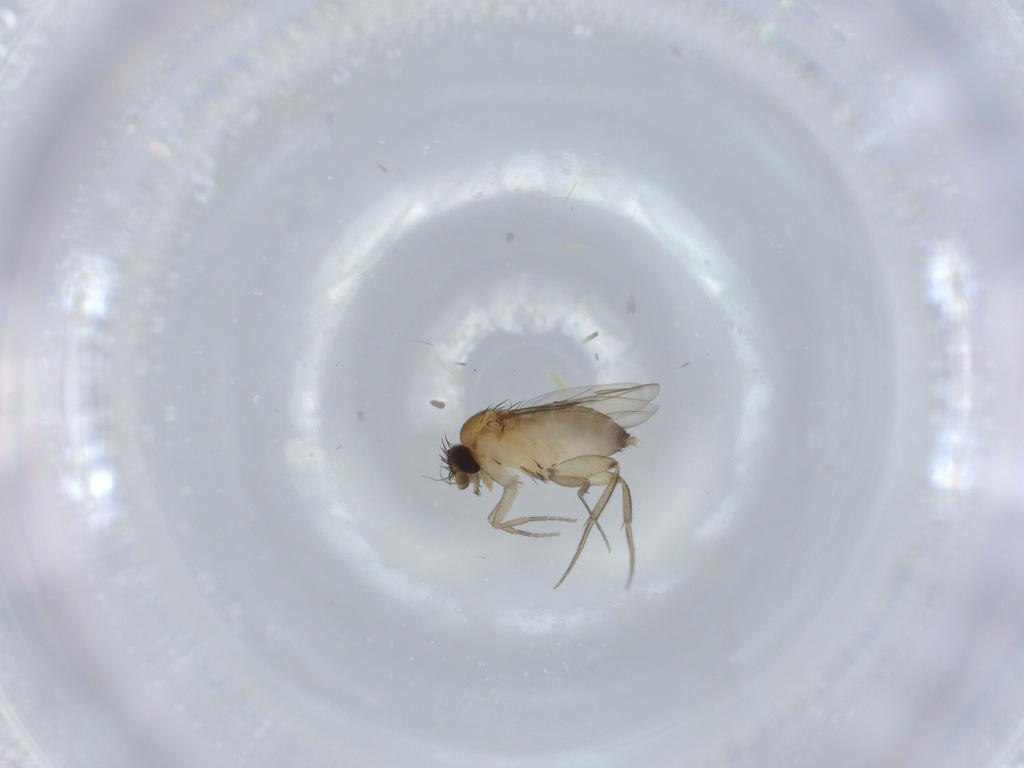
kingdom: Animalia
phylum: Arthropoda
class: Insecta
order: Diptera
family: Phoridae
